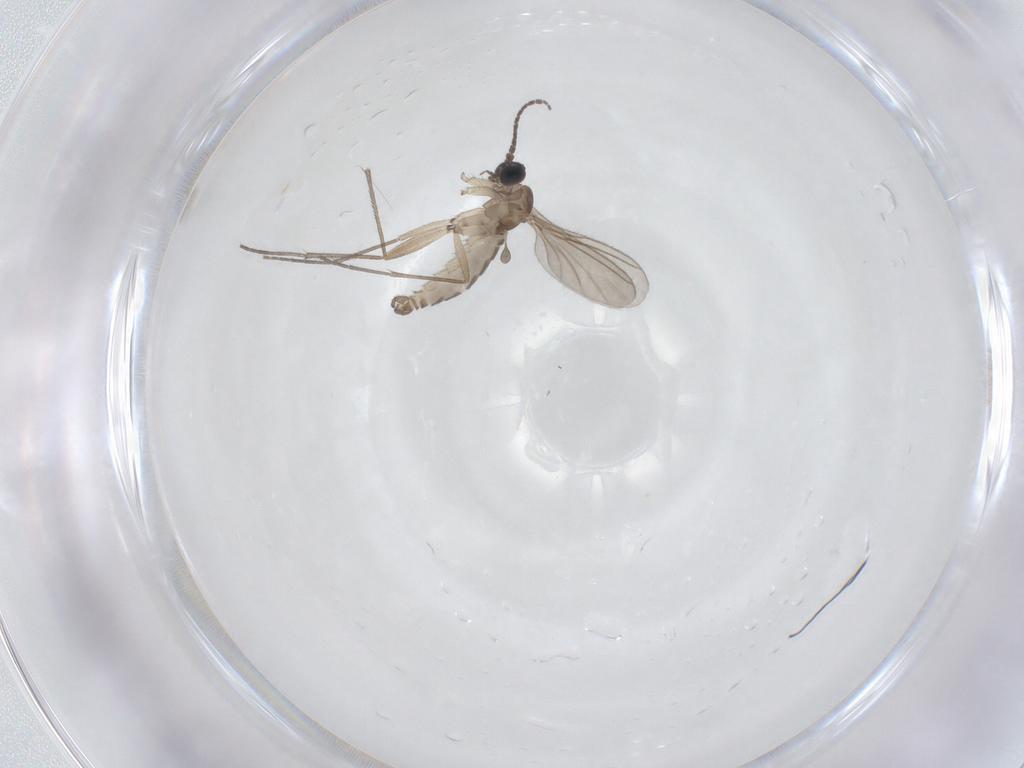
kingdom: Animalia
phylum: Arthropoda
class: Insecta
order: Diptera
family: Sciaridae
